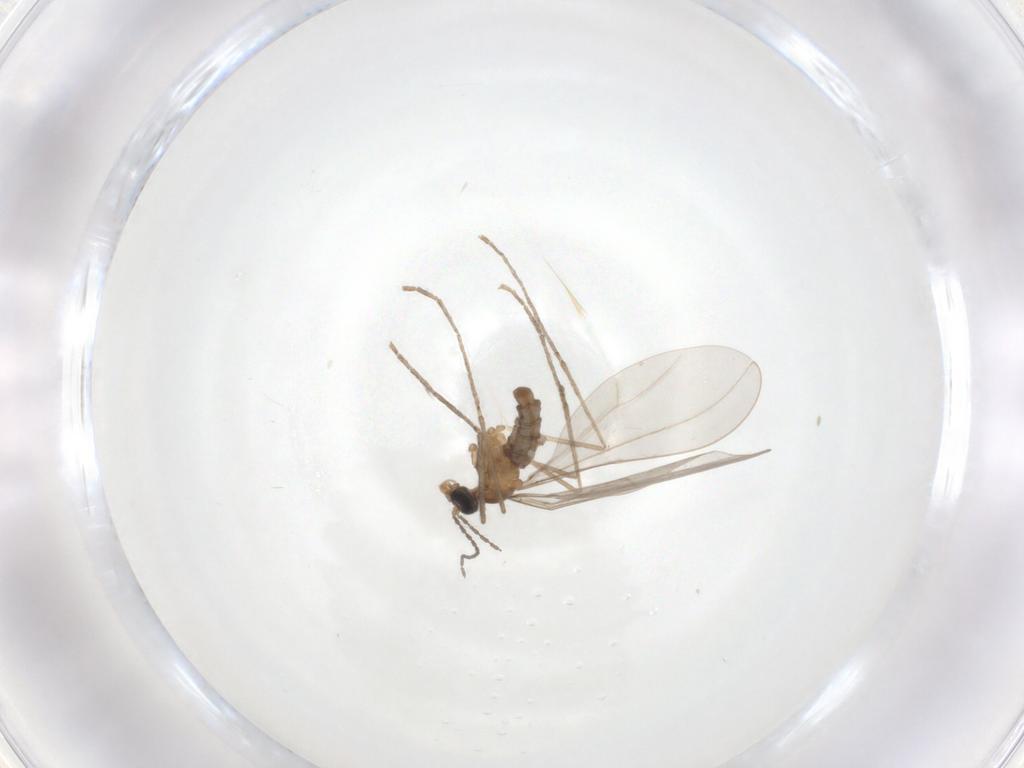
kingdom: Animalia
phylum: Arthropoda
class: Insecta
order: Diptera
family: Cecidomyiidae
